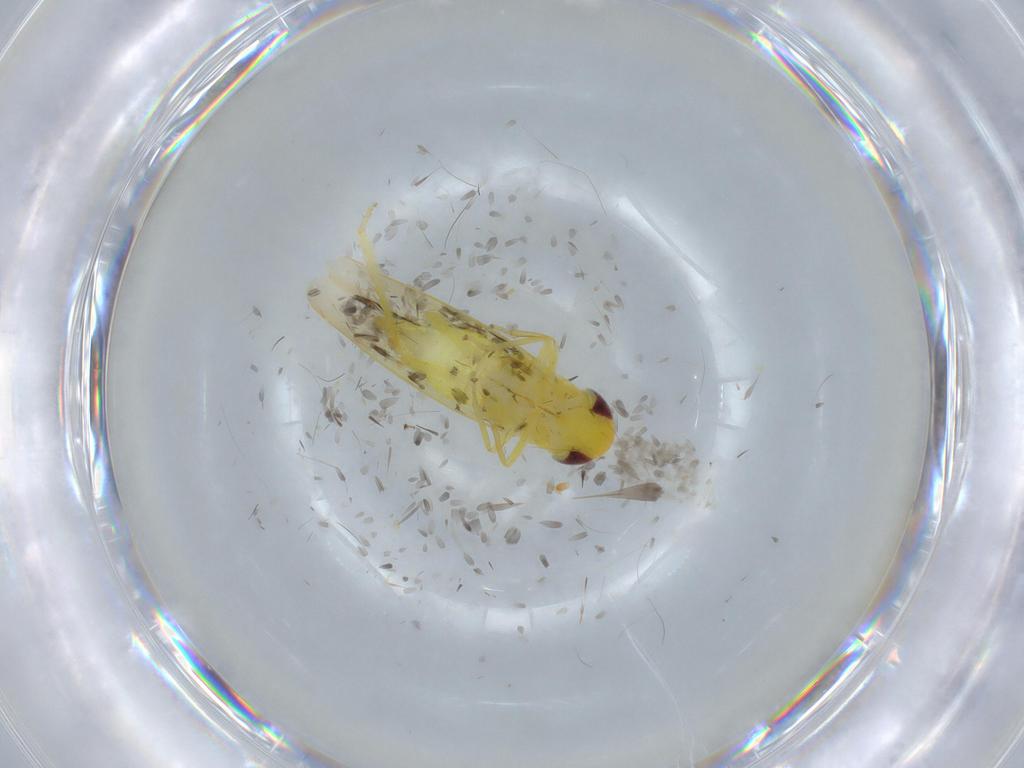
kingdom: Animalia
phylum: Arthropoda
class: Insecta
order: Hemiptera
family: Cicadellidae
